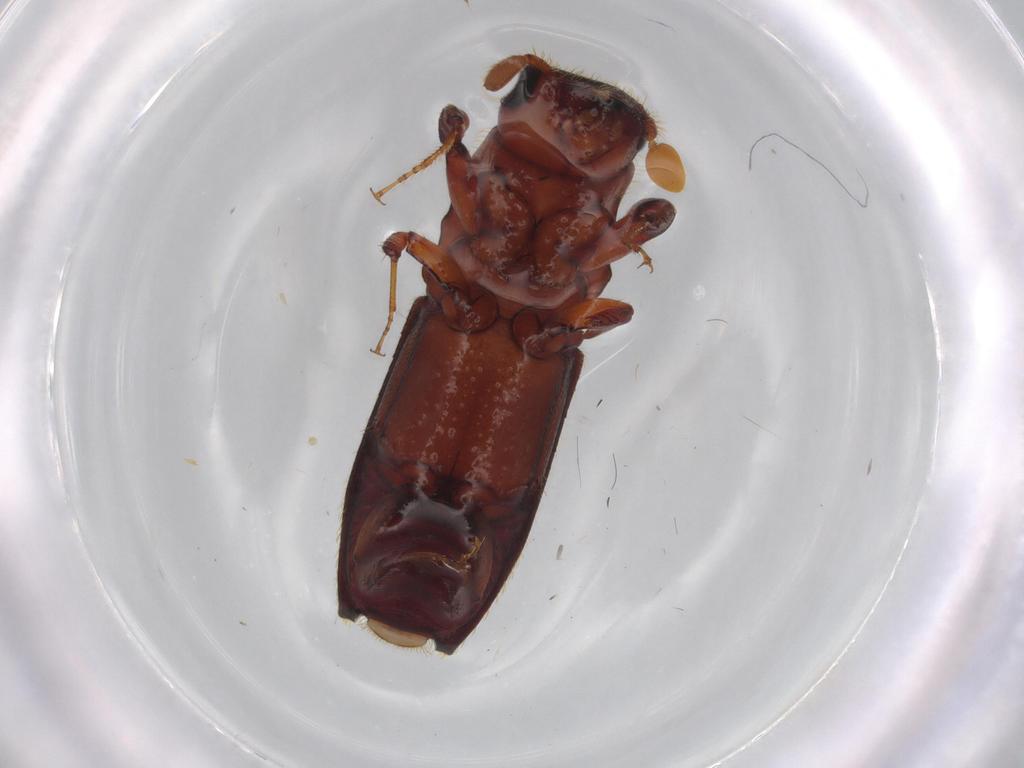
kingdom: Animalia
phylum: Arthropoda
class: Insecta
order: Coleoptera
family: Curculionidae
